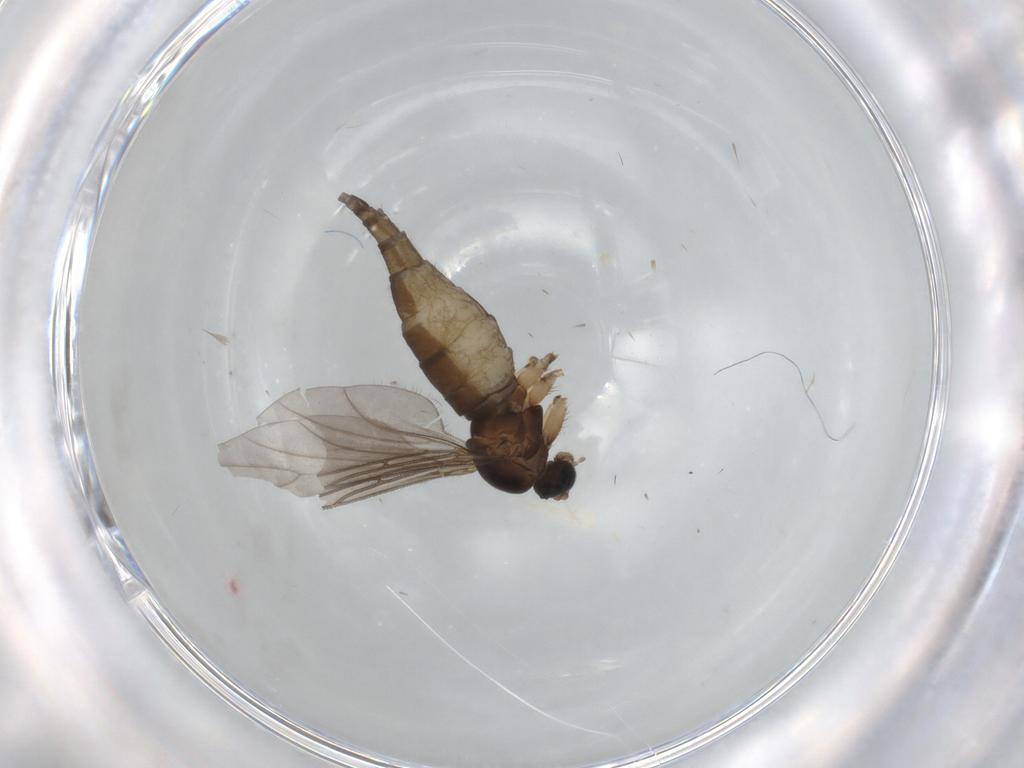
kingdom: Animalia
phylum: Arthropoda
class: Insecta
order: Diptera
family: Sciaridae
